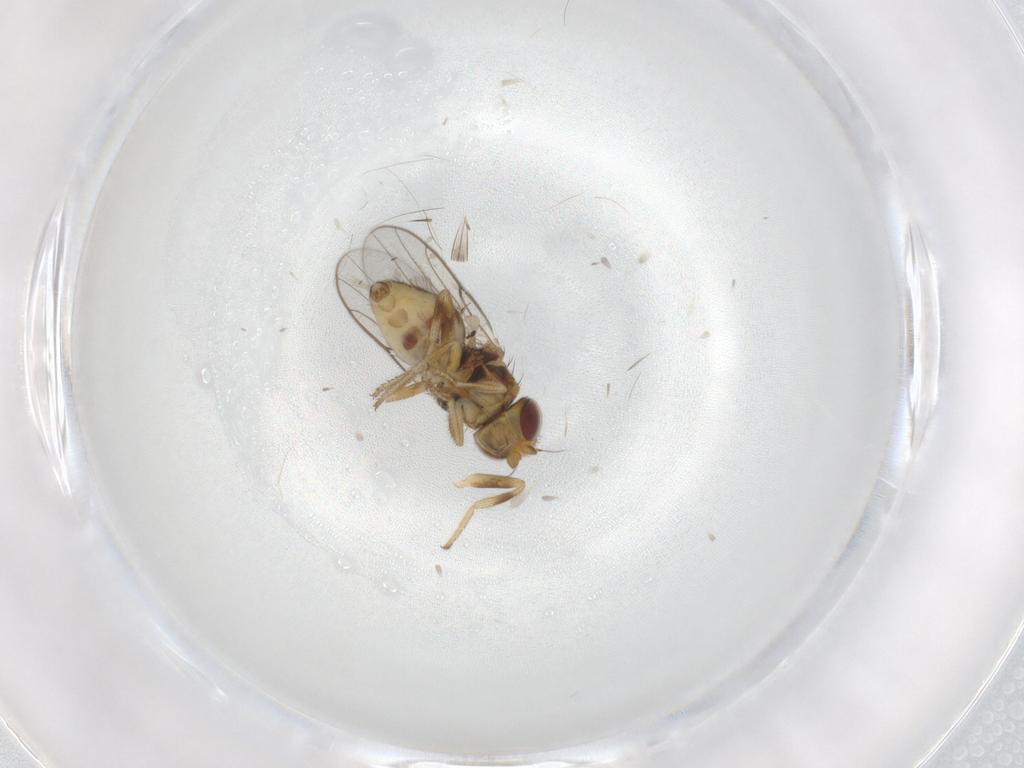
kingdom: Animalia
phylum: Arthropoda
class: Insecta
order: Diptera
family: Chloropidae
